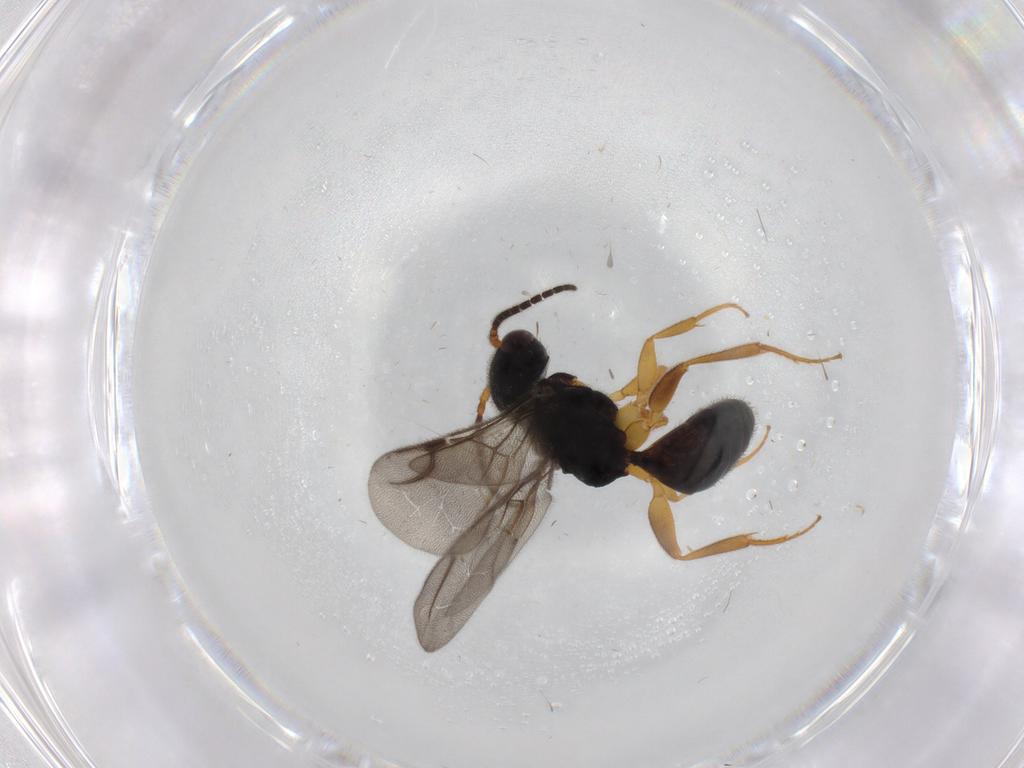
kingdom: Animalia
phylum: Arthropoda
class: Insecta
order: Hymenoptera
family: Bethylidae
